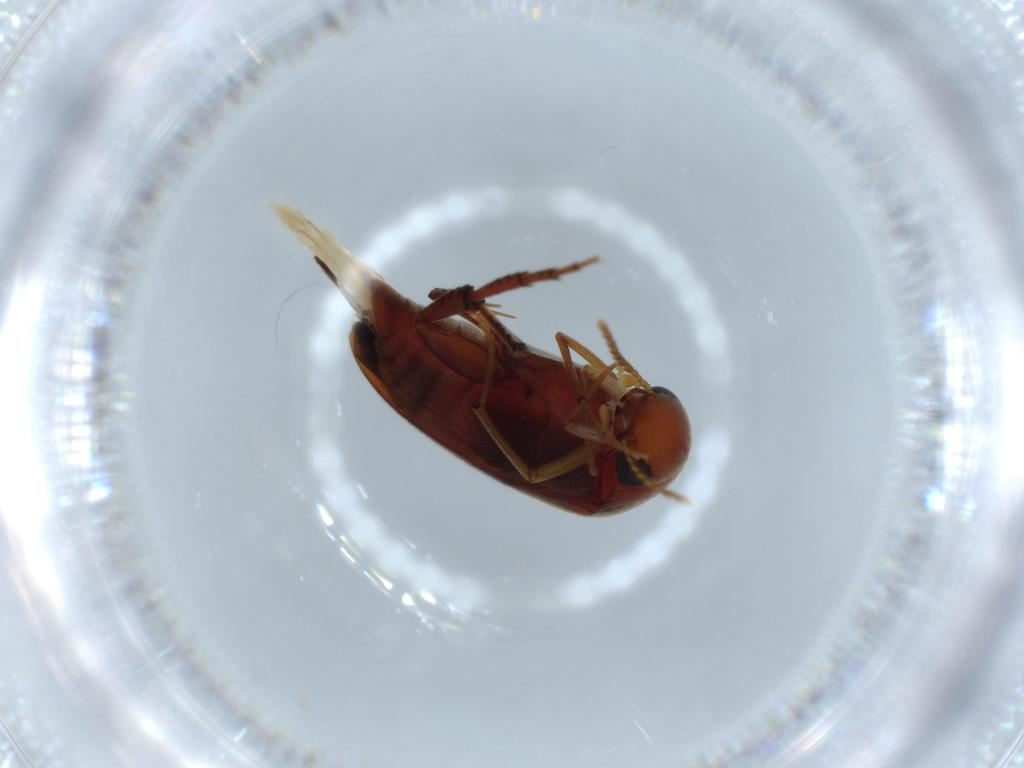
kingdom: Animalia
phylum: Arthropoda
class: Insecta
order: Coleoptera
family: Mordellidae
